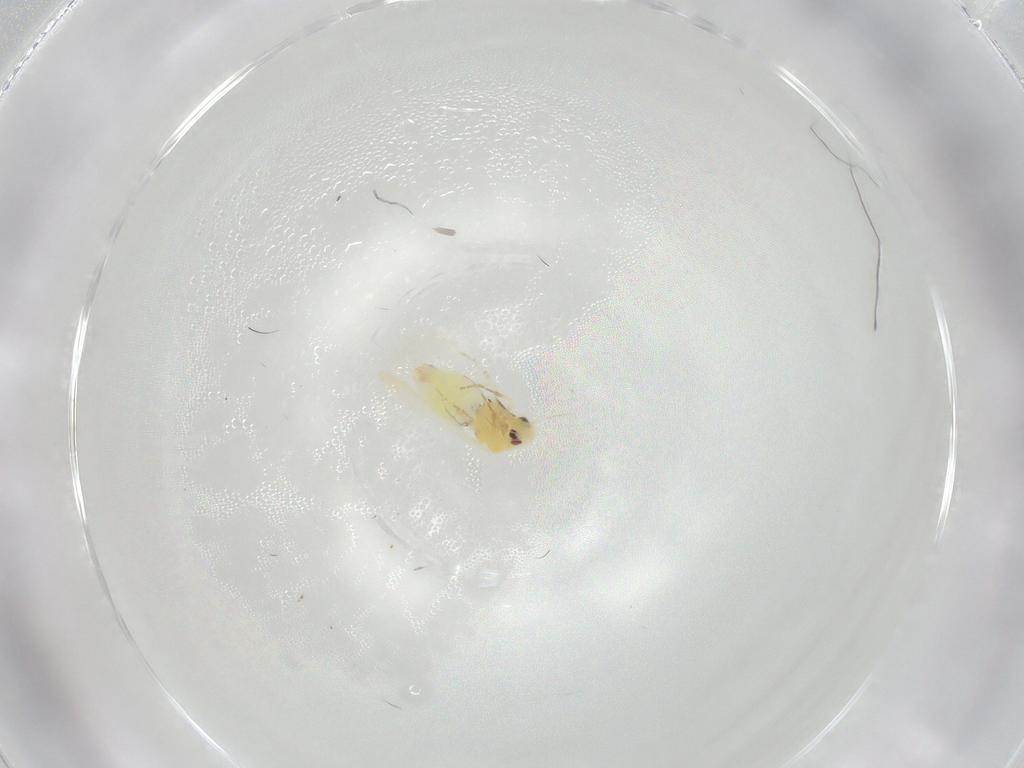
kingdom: Animalia
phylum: Arthropoda
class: Insecta
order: Hemiptera
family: Aleyrodidae
